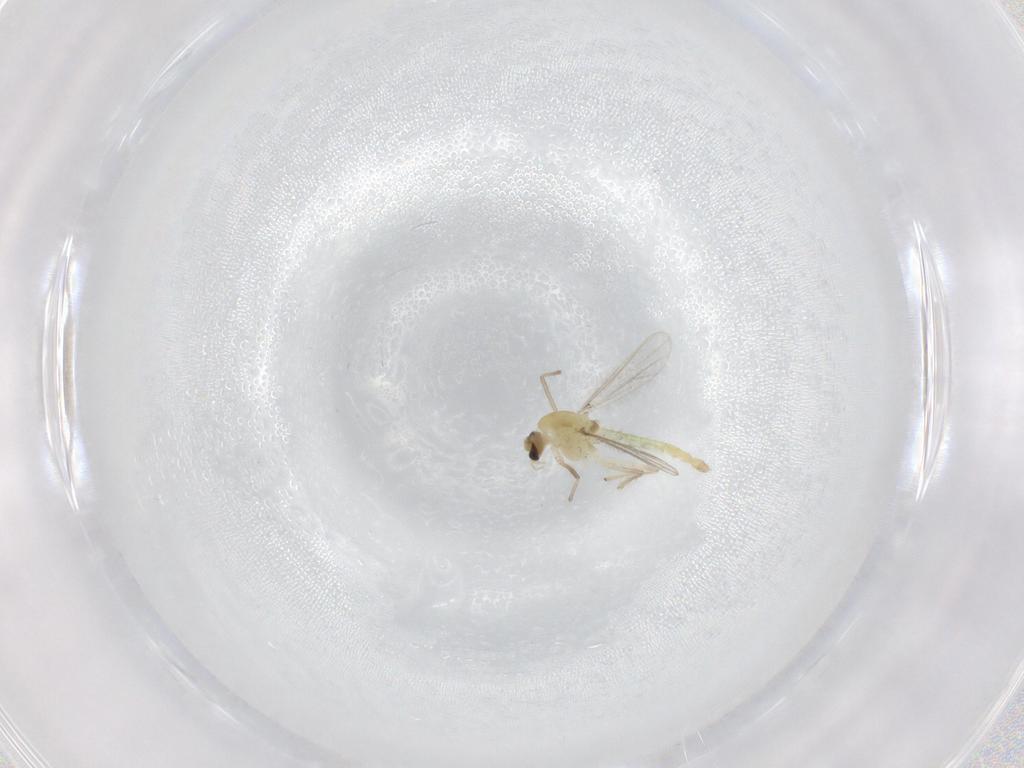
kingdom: Animalia
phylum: Arthropoda
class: Insecta
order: Diptera
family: Chironomidae
